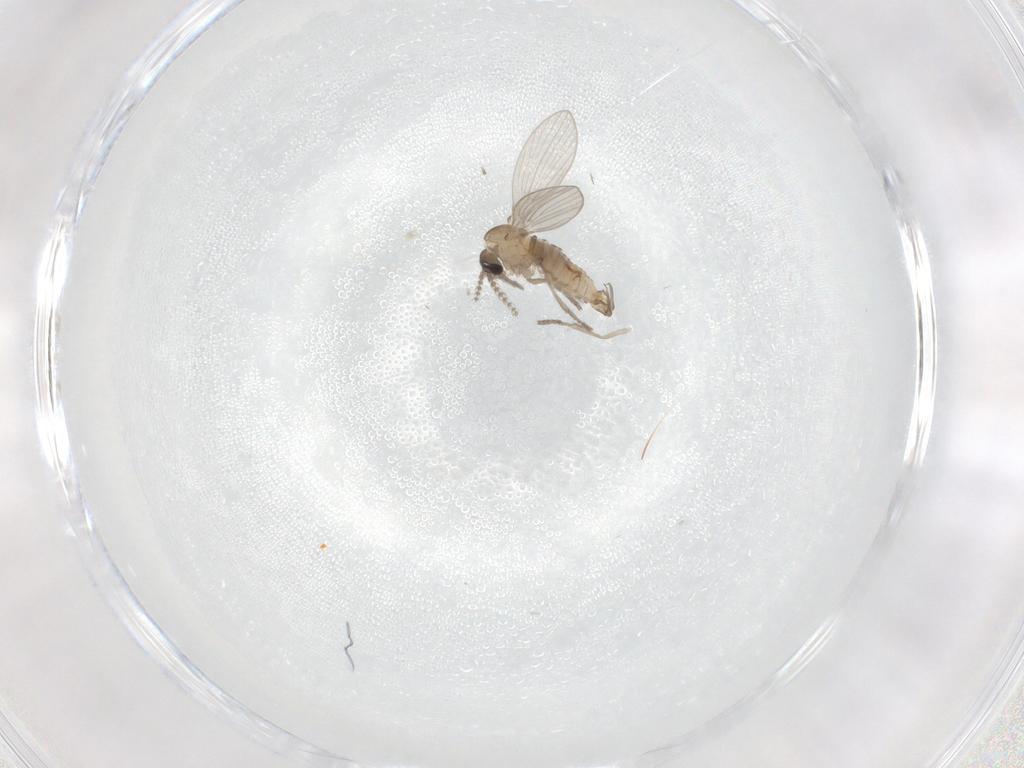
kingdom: Animalia
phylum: Arthropoda
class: Insecta
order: Diptera
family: Psychodidae
